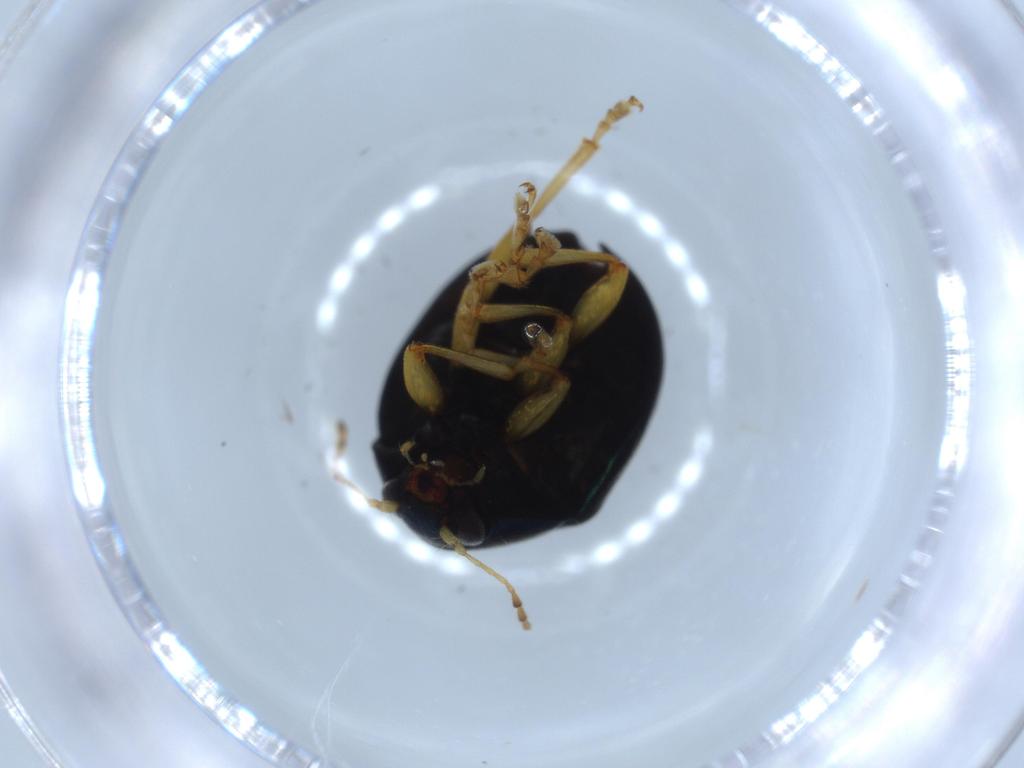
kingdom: Animalia
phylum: Arthropoda
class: Insecta
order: Coleoptera
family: Chrysomelidae
